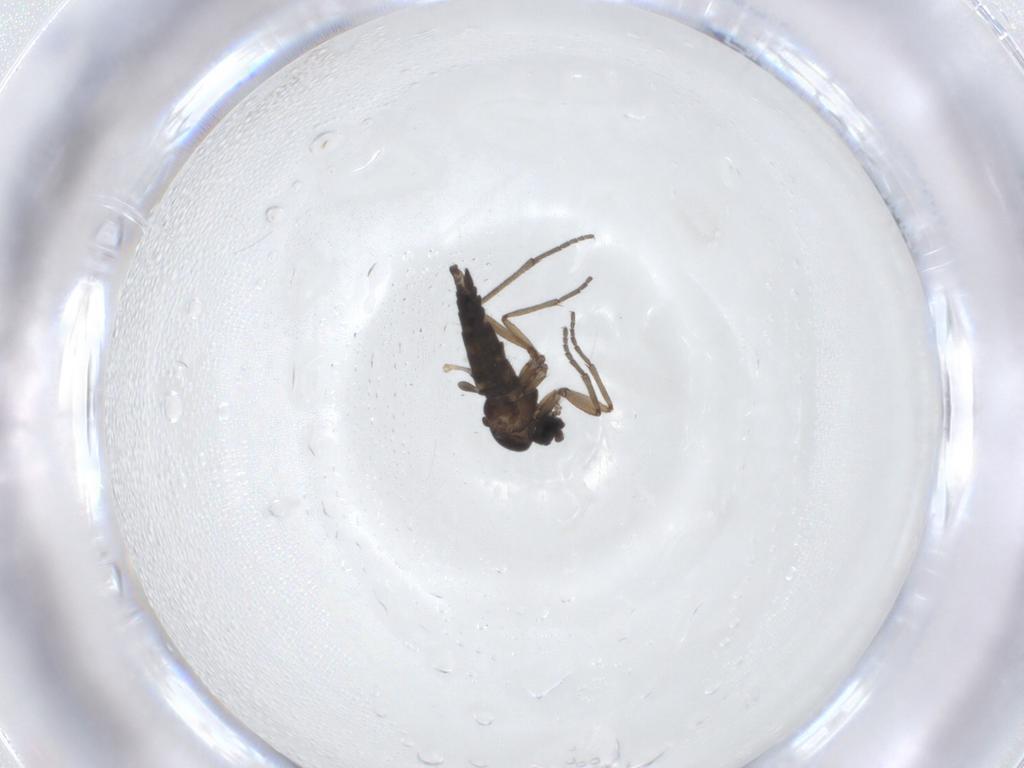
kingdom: Animalia
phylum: Arthropoda
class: Insecta
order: Diptera
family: Sciaridae
